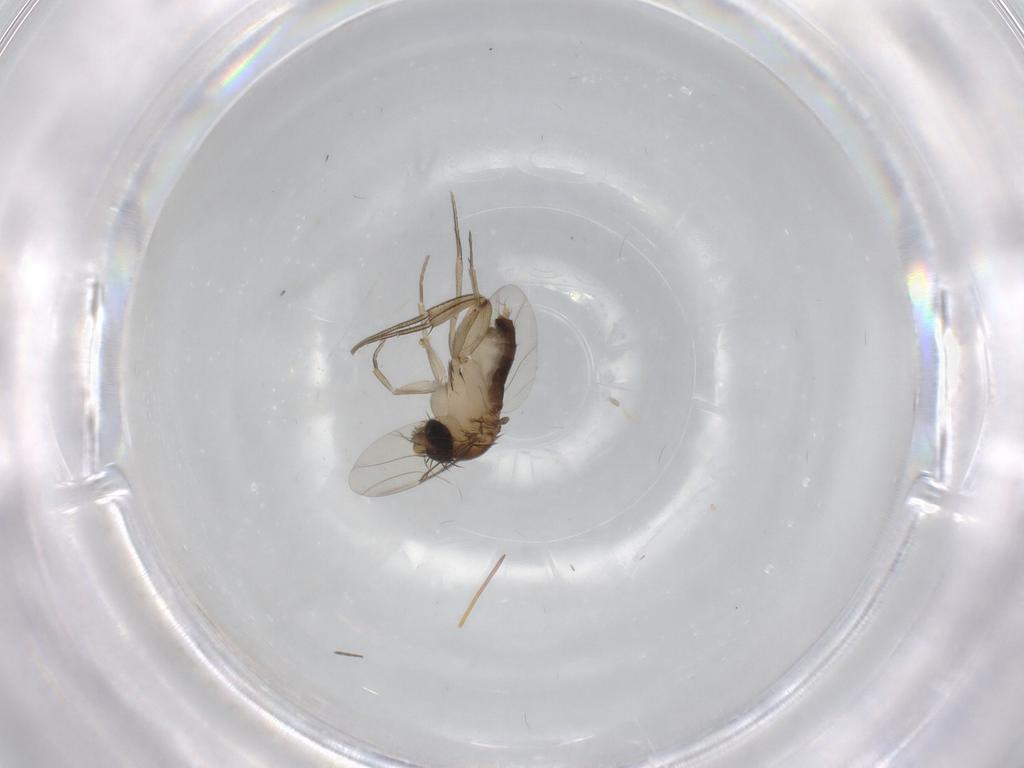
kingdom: Animalia
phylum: Arthropoda
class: Insecta
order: Diptera
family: Phoridae
